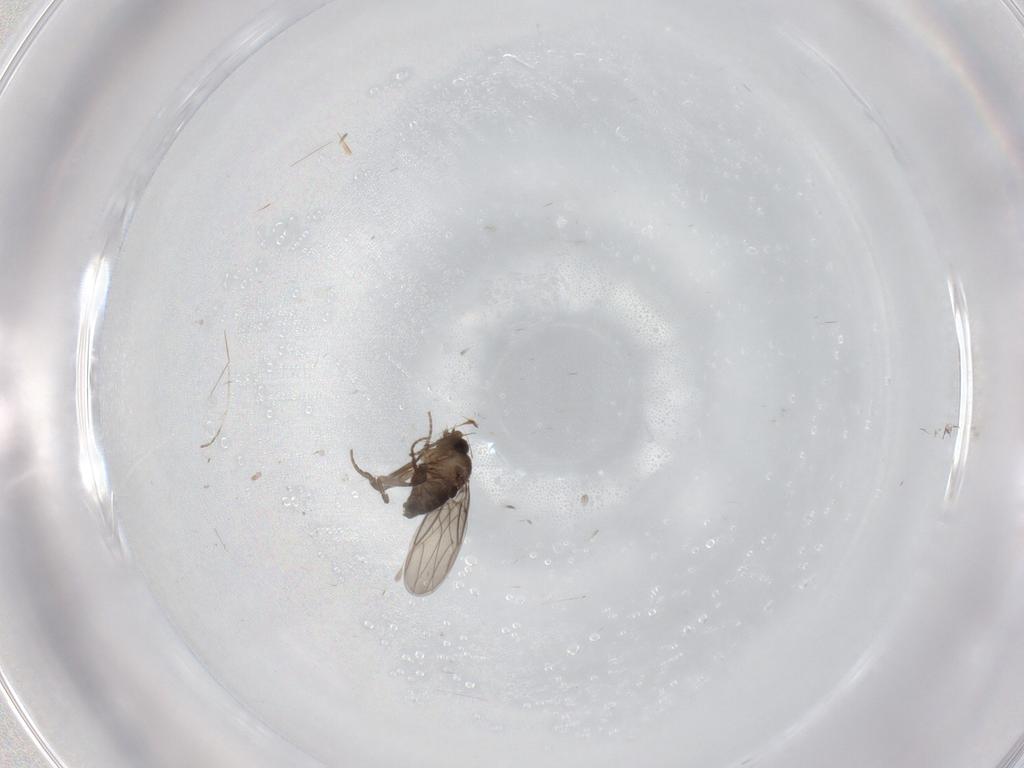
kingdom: Animalia
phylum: Arthropoda
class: Insecta
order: Diptera
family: Phoridae
